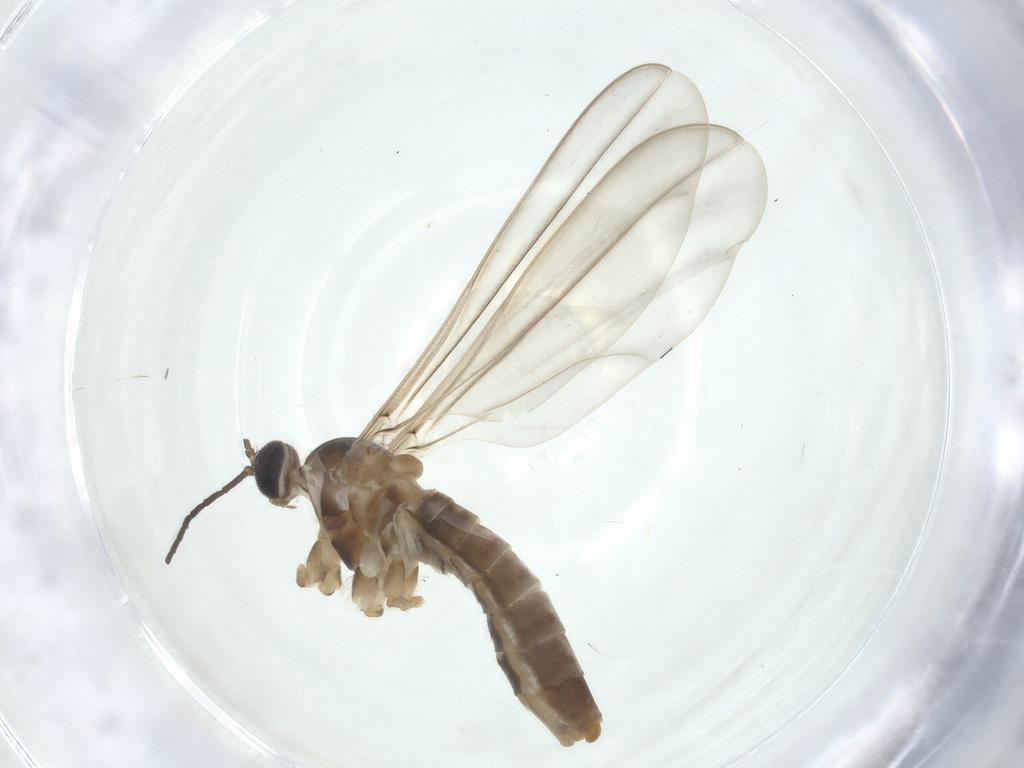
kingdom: Animalia
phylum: Arthropoda
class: Insecta
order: Diptera
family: Cecidomyiidae
